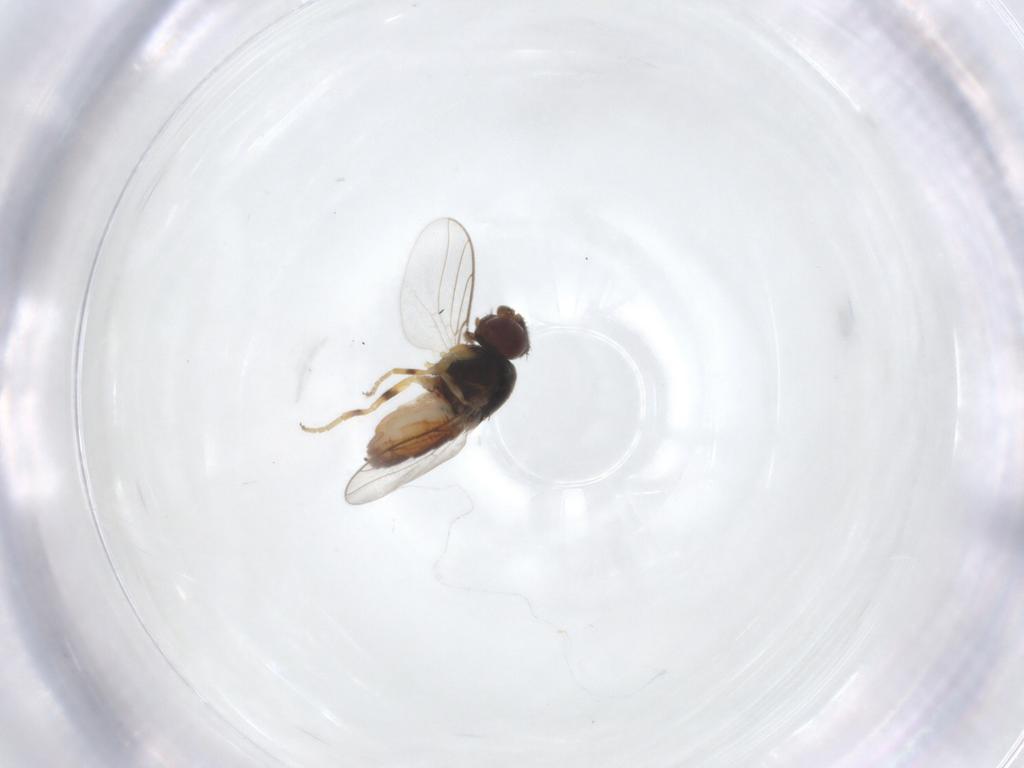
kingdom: Animalia
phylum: Arthropoda
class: Insecta
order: Diptera
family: Chloropidae
